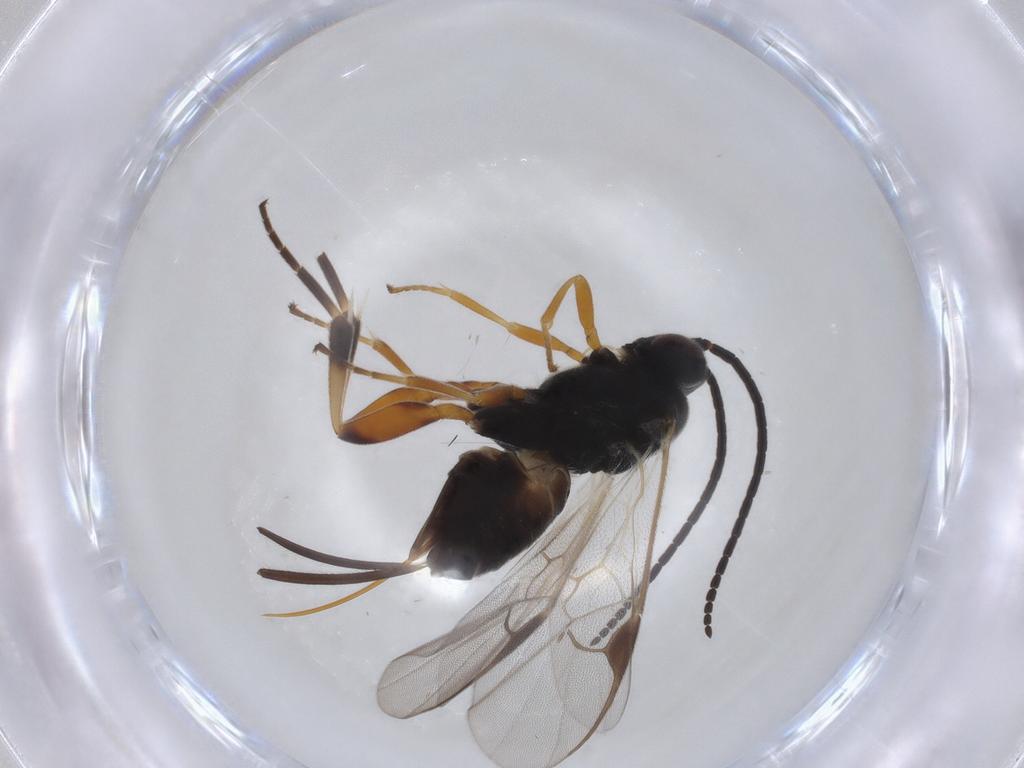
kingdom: Animalia
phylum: Arthropoda
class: Insecta
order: Hymenoptera
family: Braconidae
